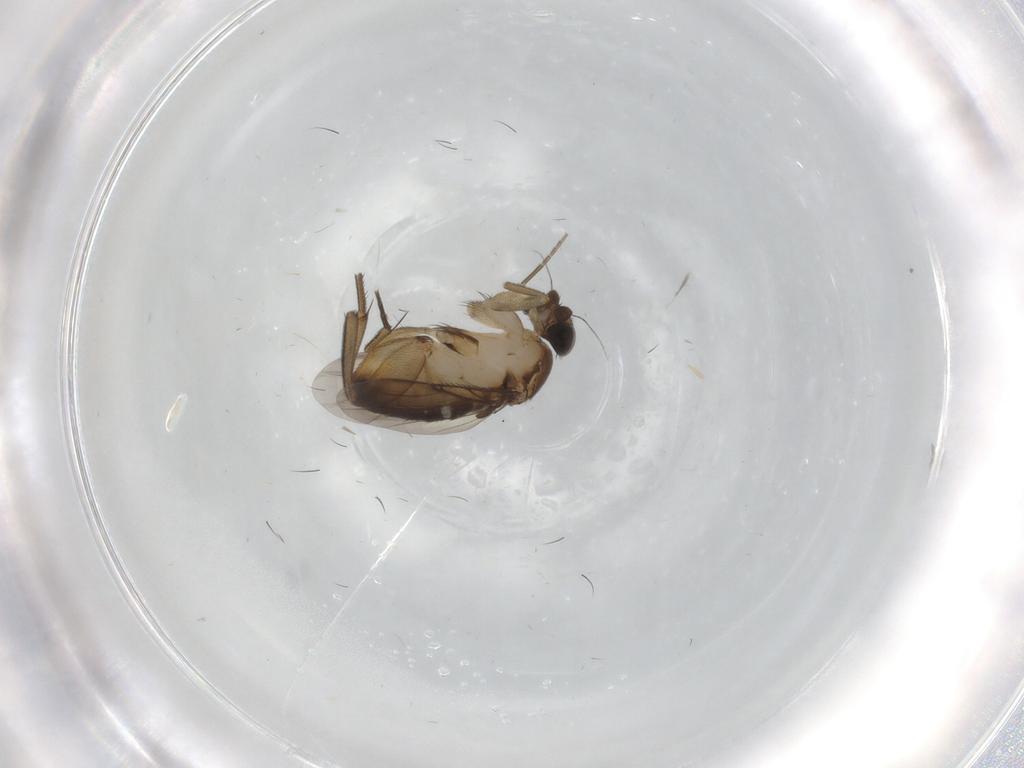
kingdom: Animalia
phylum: Arthropoda
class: Insecta
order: Diptera
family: Phoridae
